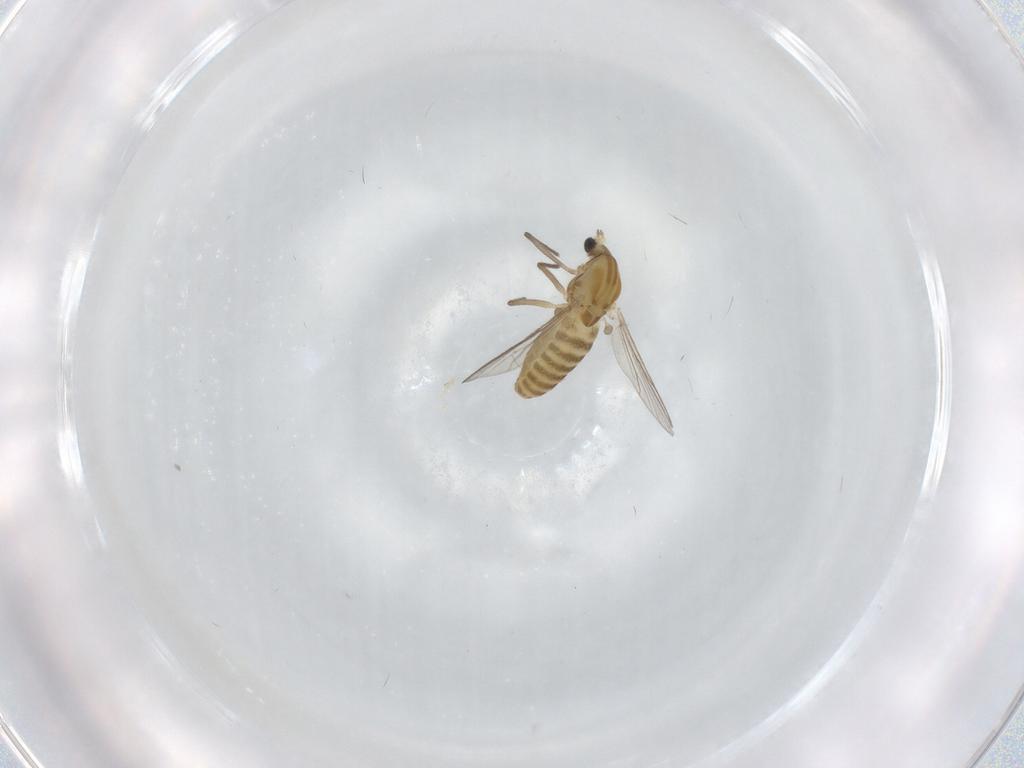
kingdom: Animalia
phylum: Arthropoda
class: Insecta
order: Diptera
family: Chironomidae
